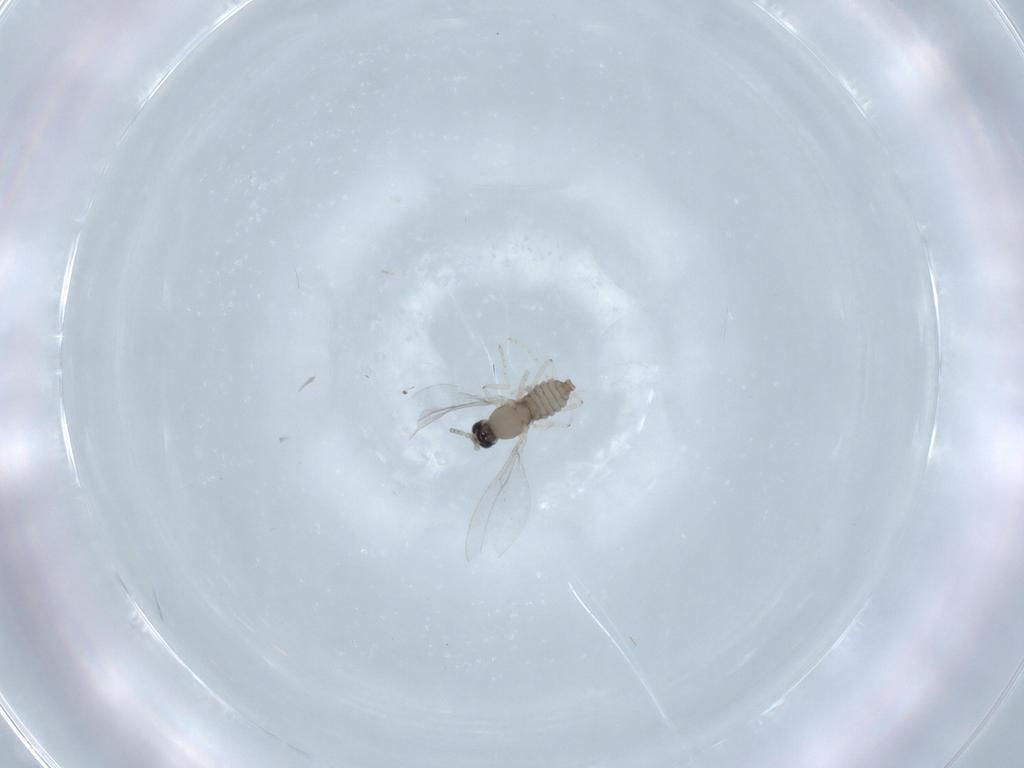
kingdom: Animalia
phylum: Arthropoda
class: Insecta
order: Diptera
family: Cecidomyiidae
